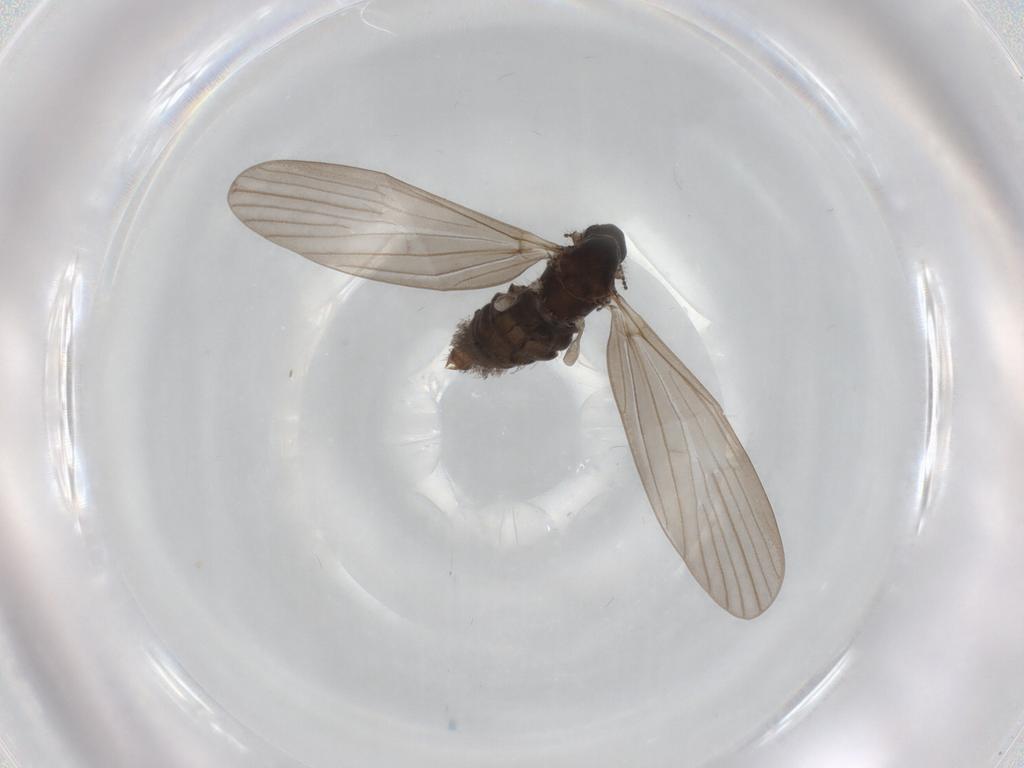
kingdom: Animalia
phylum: Arthropoda
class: Insecta
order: Diptera
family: Limoniidae
